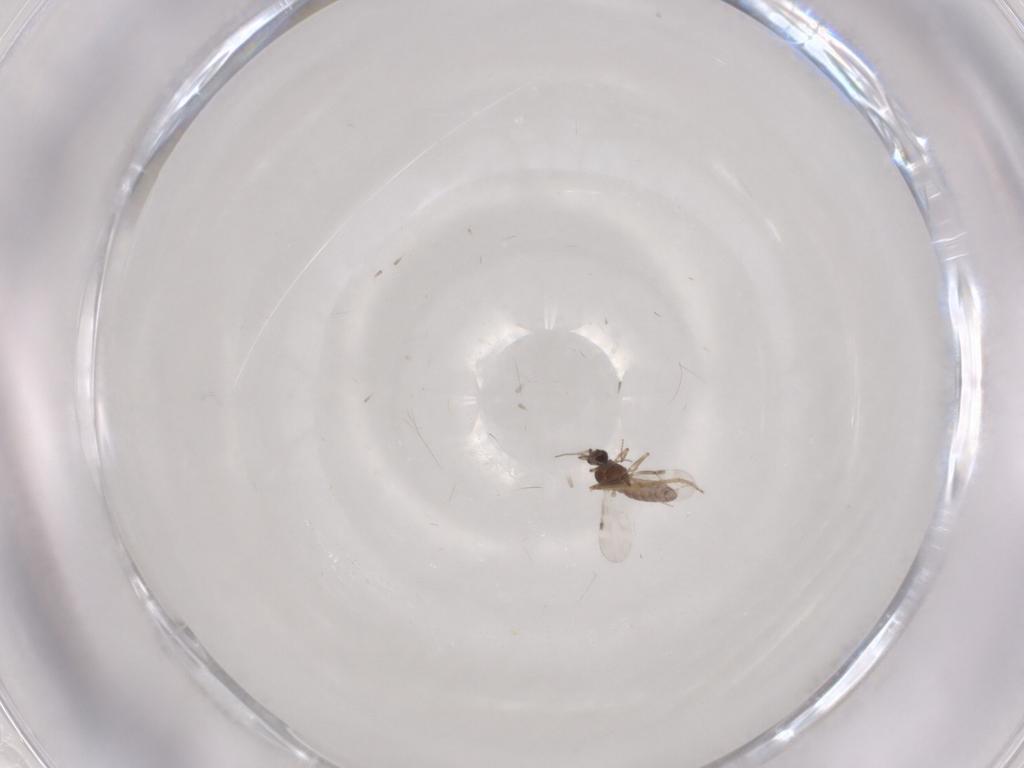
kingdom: Animalia
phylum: Arthropoda
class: Insecta
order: Diptera
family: Ceratopogonidae
